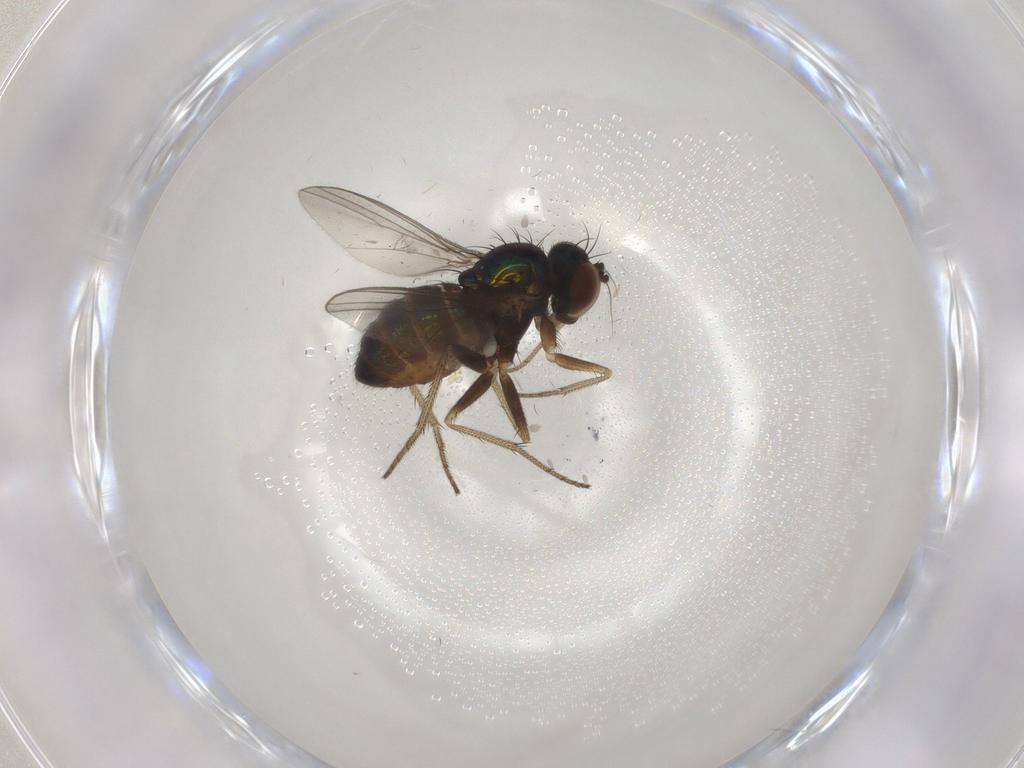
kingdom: Animalia
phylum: Arthropoda
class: Insecta
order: Diptera
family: Dolichopodidae
